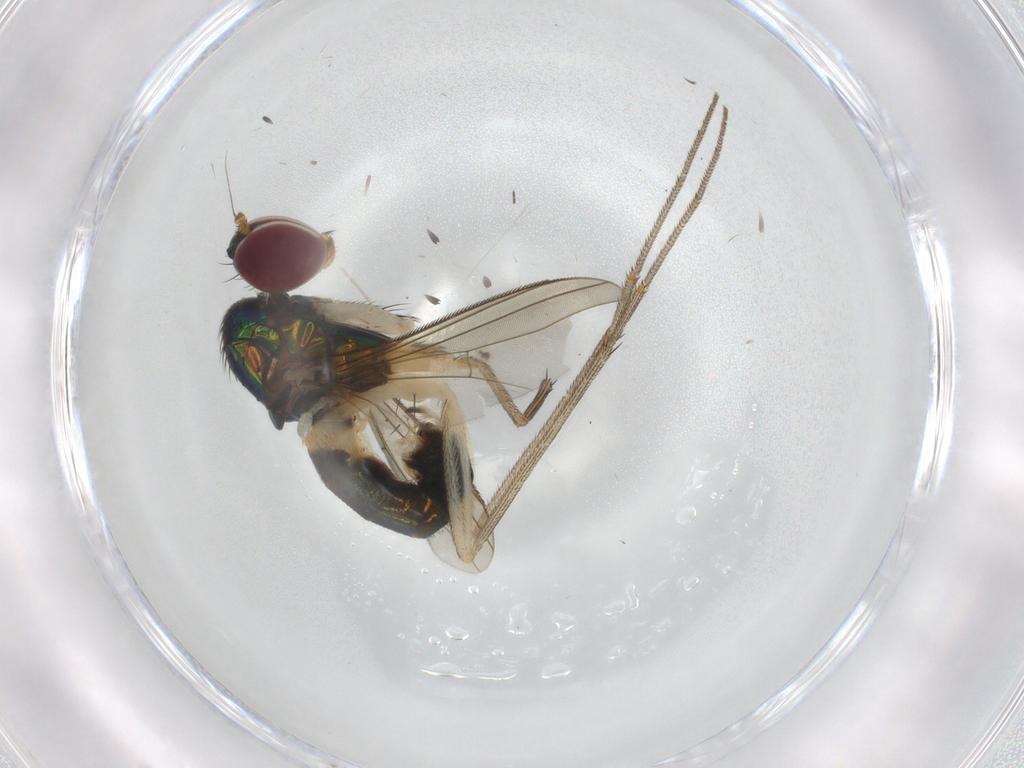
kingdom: Animalia
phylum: Arthropoda
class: Insecta
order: Diptera
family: Dolichopodidae
